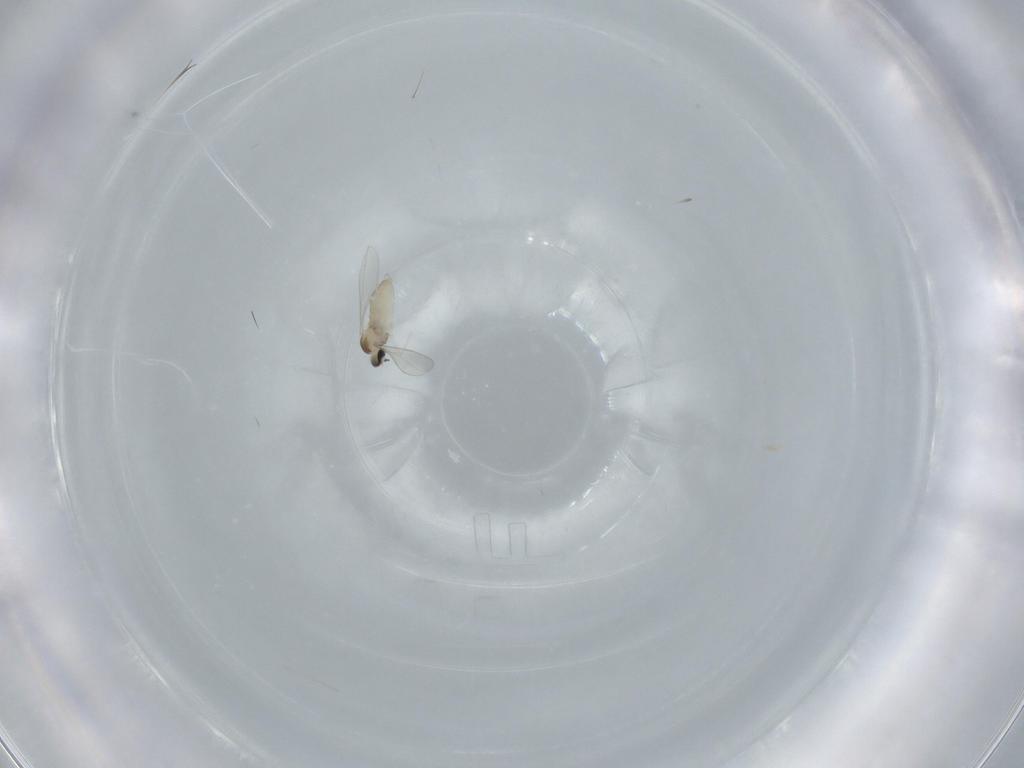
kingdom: Animalia
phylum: Arthropoda
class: Insecta
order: Diptera
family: Cecidomyiidae
